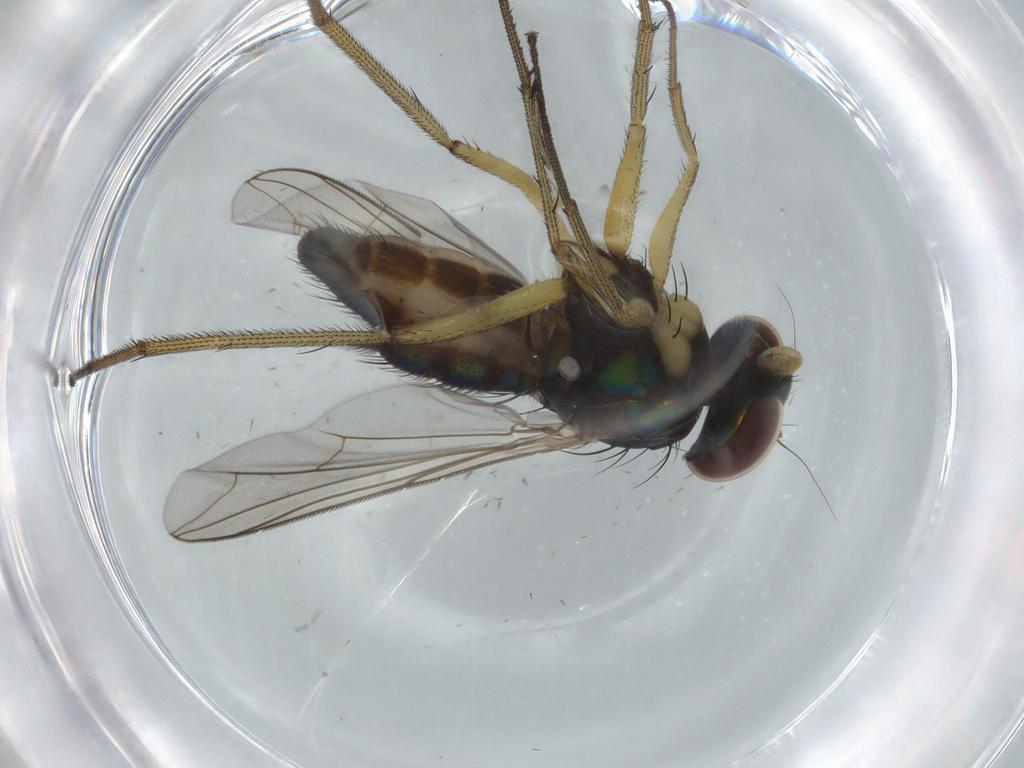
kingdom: Animalia
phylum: Arthropoda
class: Insecta
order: Diptera
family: Dolichopodidae
